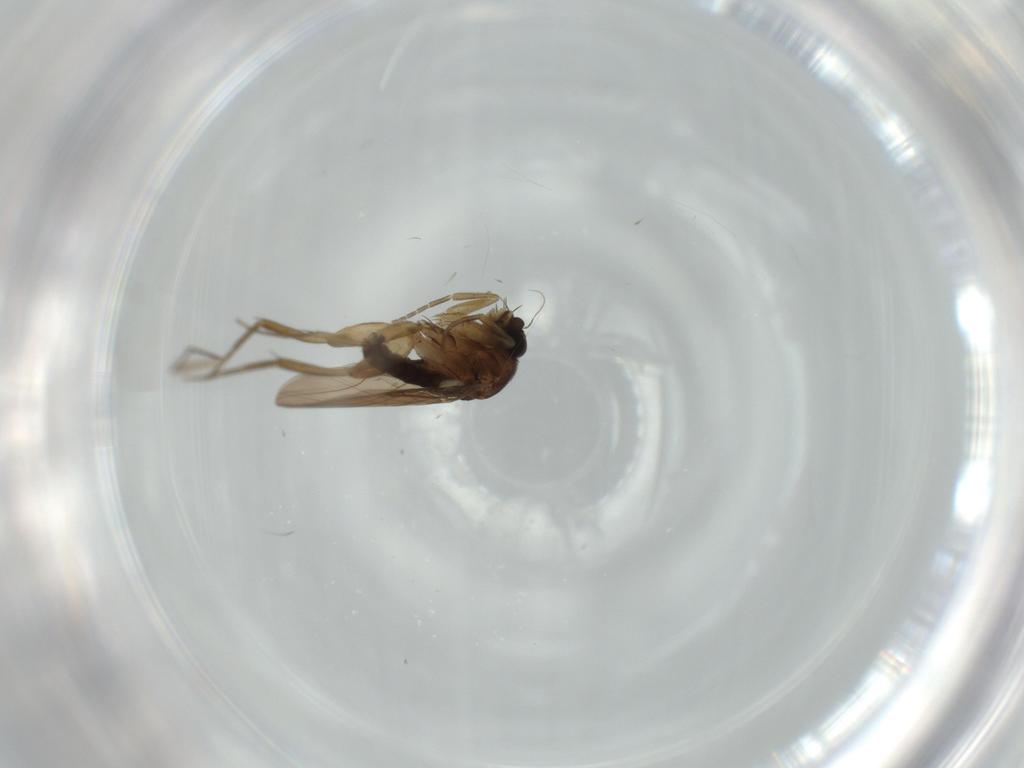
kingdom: Animalia
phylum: Arthropoda
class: Insecta
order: Diptera
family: Phoridae
